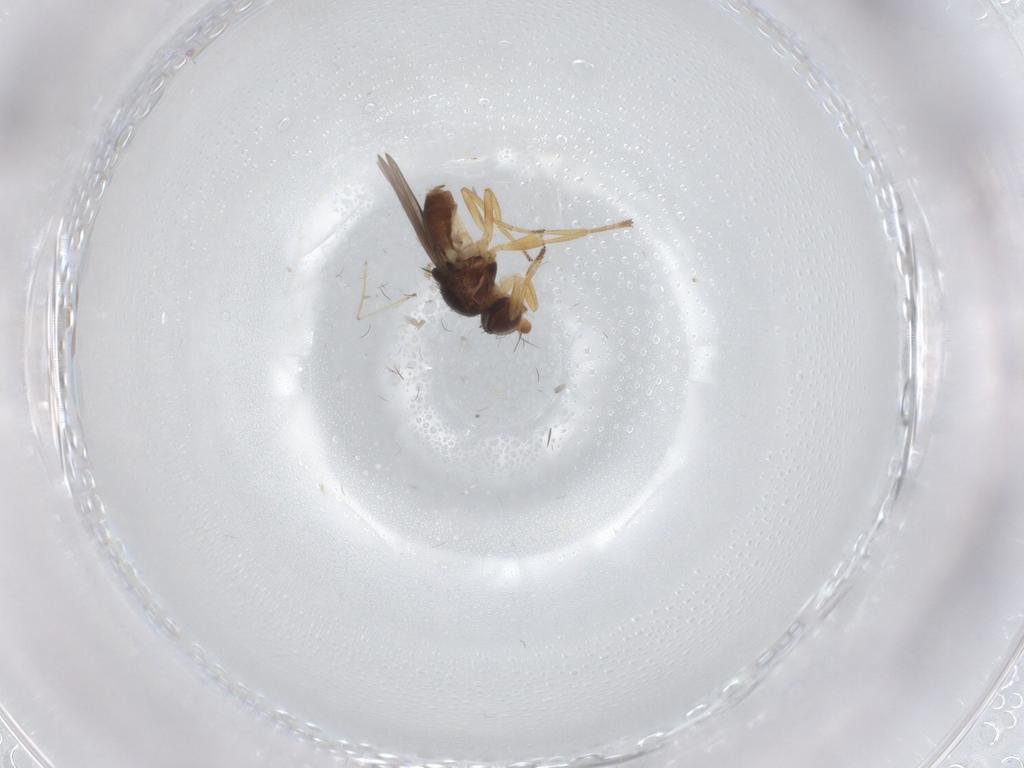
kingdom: Animalia
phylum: Arthropoda
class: Insecta
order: Diptera
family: Chloropidae
